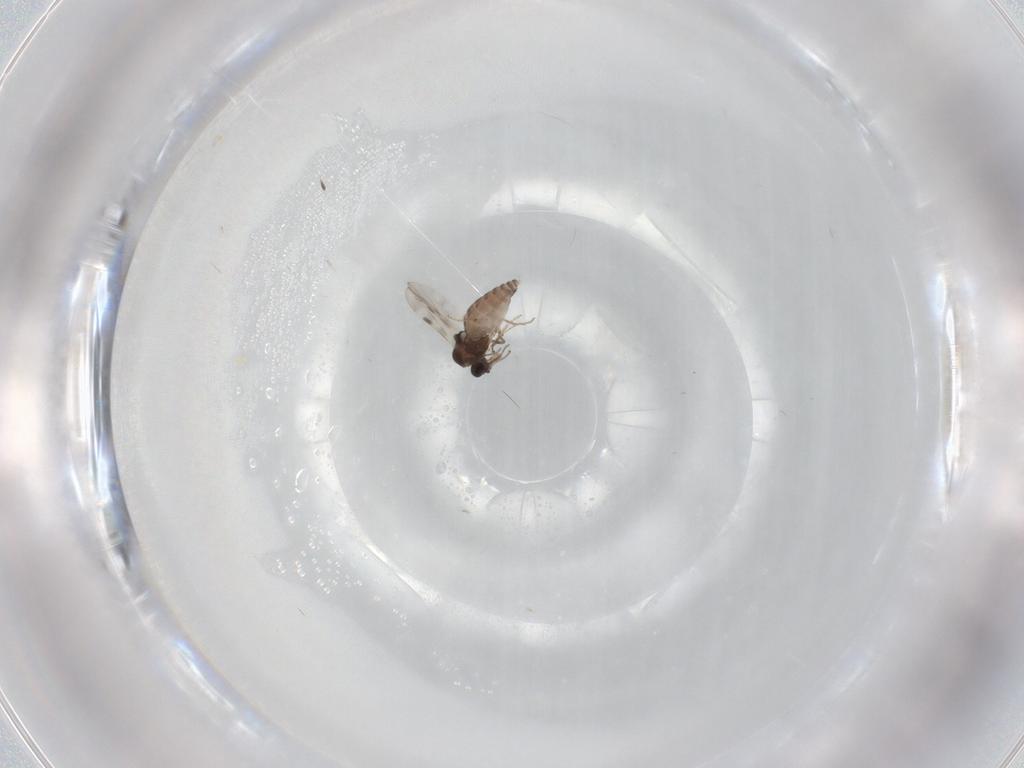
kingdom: Animalia
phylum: Arthropoda
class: Insecta
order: Diptera
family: Cecidomyiidae
